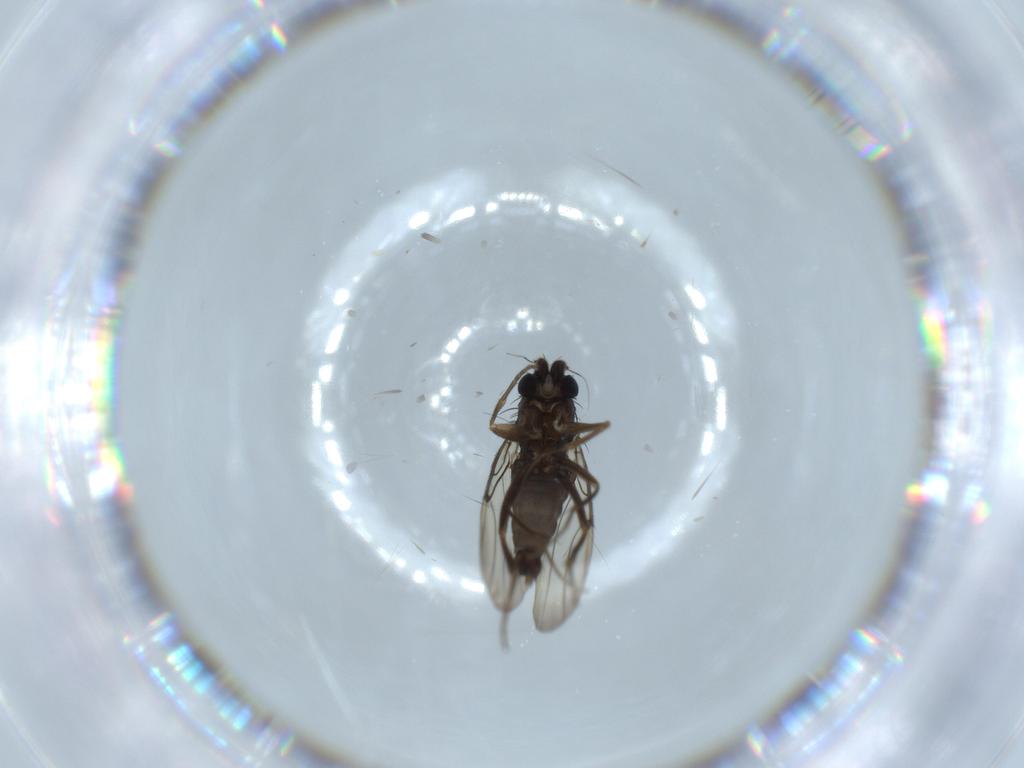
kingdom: Animalia
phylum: Arthropoda
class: Insecta
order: Diptera
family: Phoridae
